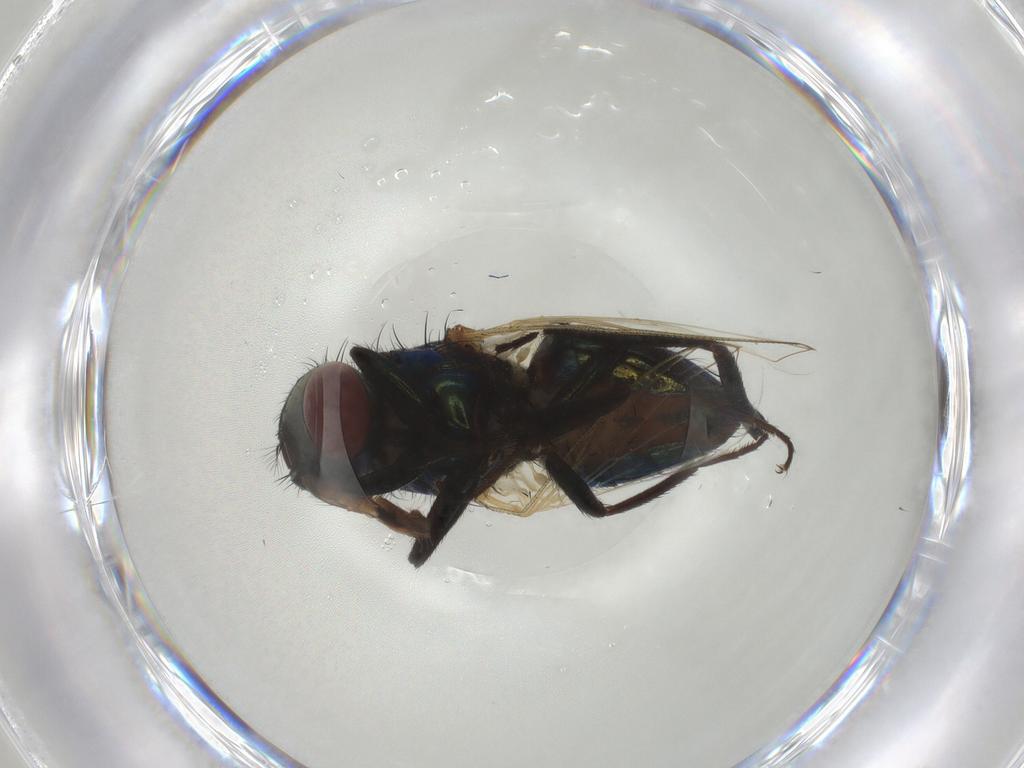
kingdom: Animalia
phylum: Arthropoda
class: Insecta
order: Diptera
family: Muscidae
